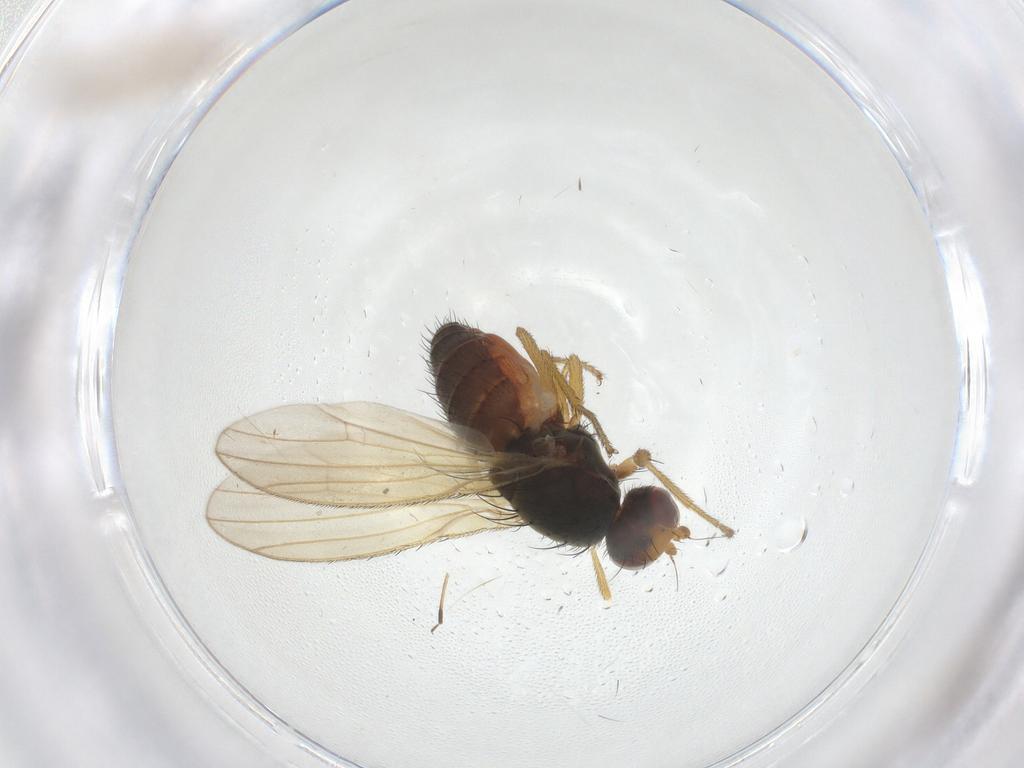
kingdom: Animalia
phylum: Arthropoda
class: Insecta
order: Diptera
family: Heleomyzidae
